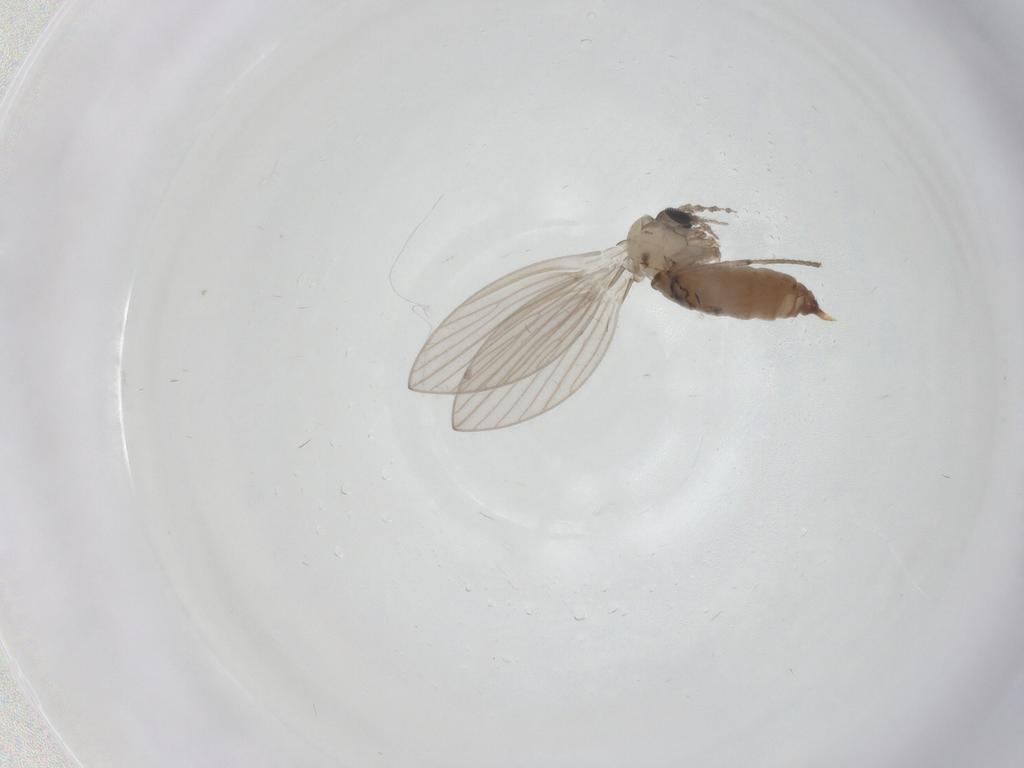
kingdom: Animalia
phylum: Arthropoda
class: Insecta
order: Diptera
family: Psychodidae
